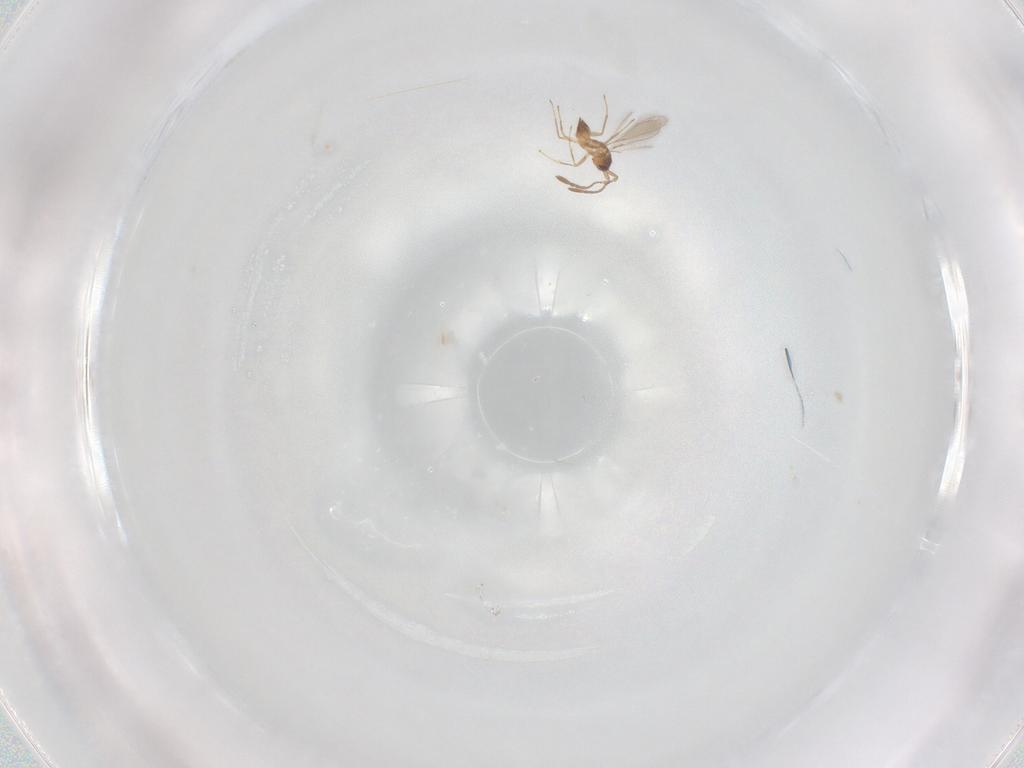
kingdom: Animalia
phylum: Arthropoda
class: Insecta
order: Hymenoptera
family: Mymaridae
